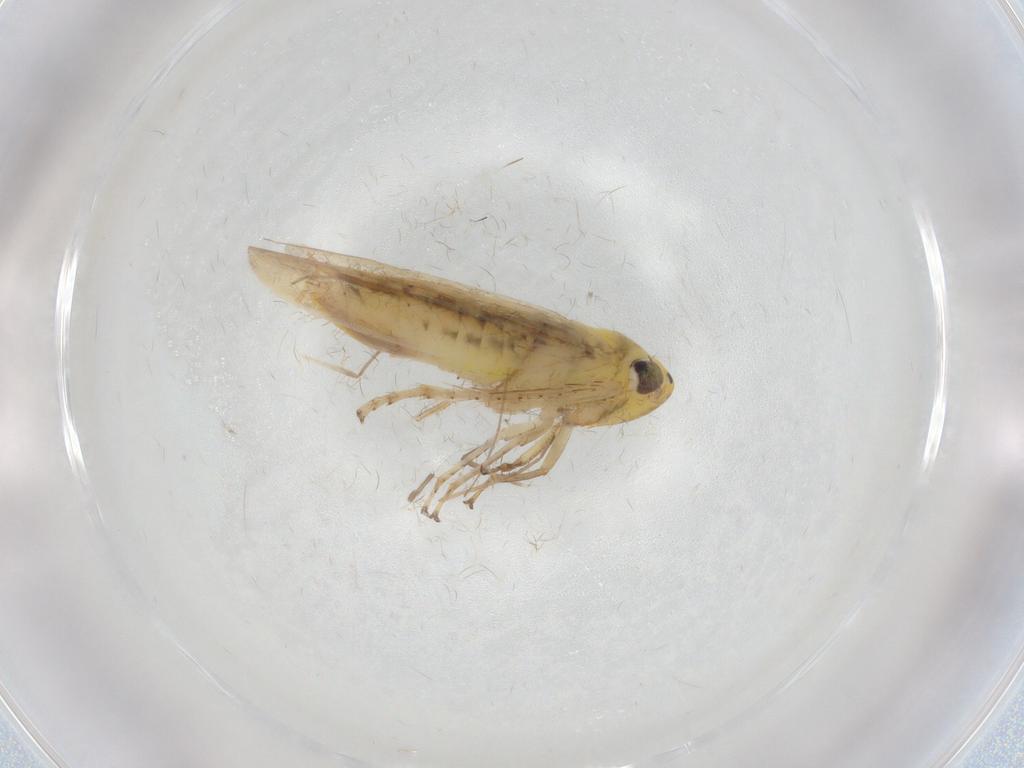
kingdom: Animalia
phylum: Arthropoda
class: Insecta
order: Hemiptera
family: Cicadellidae
